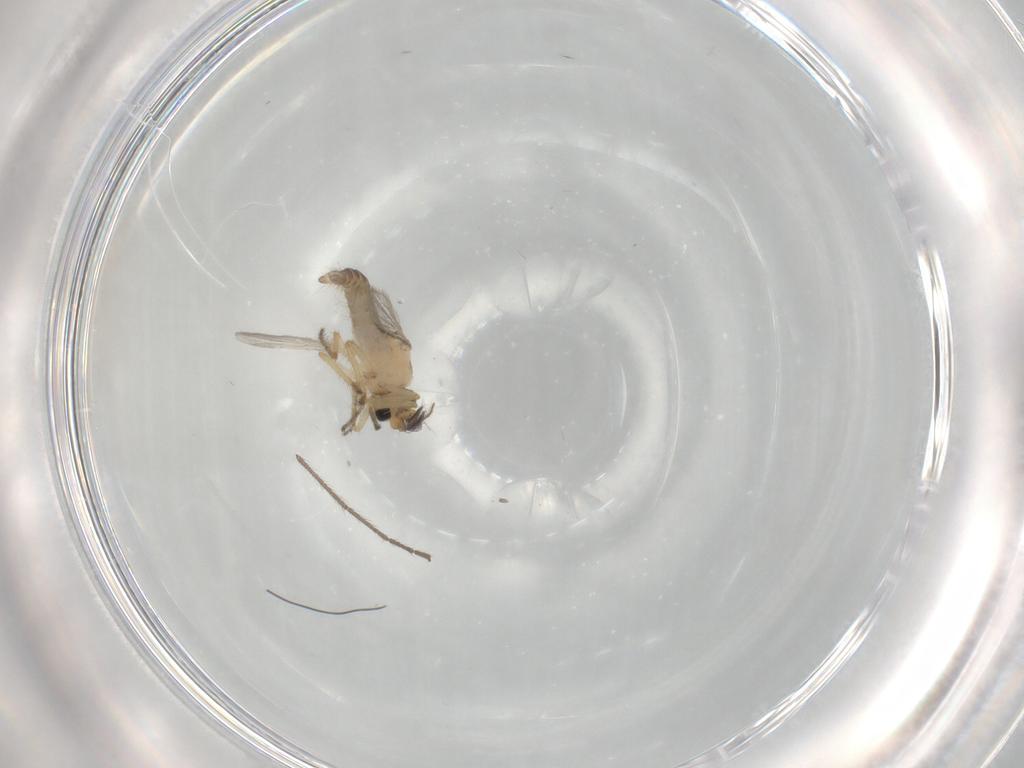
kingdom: Animalia
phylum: Arthropoda
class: Insecta
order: Diptera
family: Ceratopogonidae
